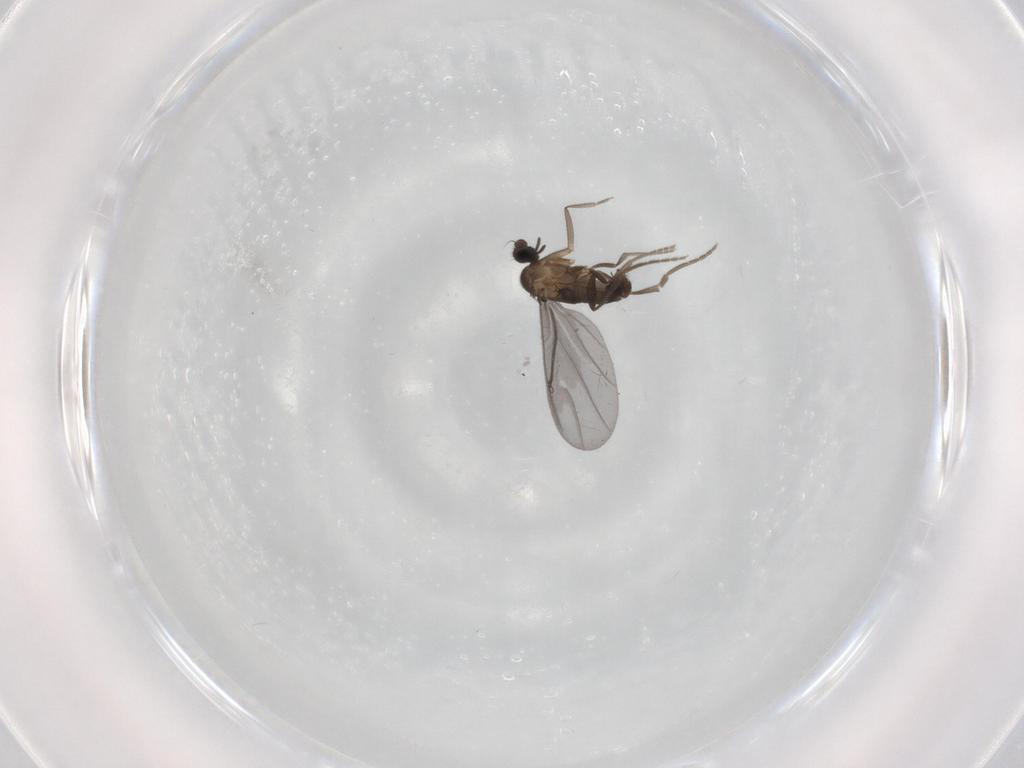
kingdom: Animalia
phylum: Arthropoda
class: Insecta
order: Diptera
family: Phoridae
